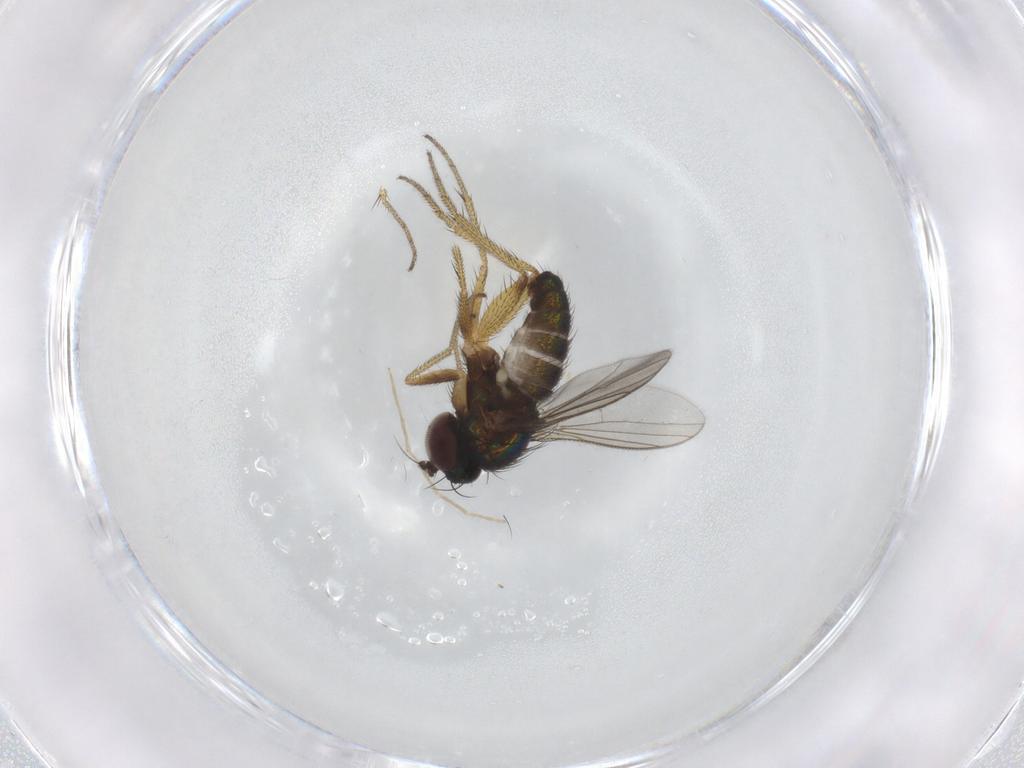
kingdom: Animalia
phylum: Arthropoda
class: Insecta
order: Diptera
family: Dolichopodidae
